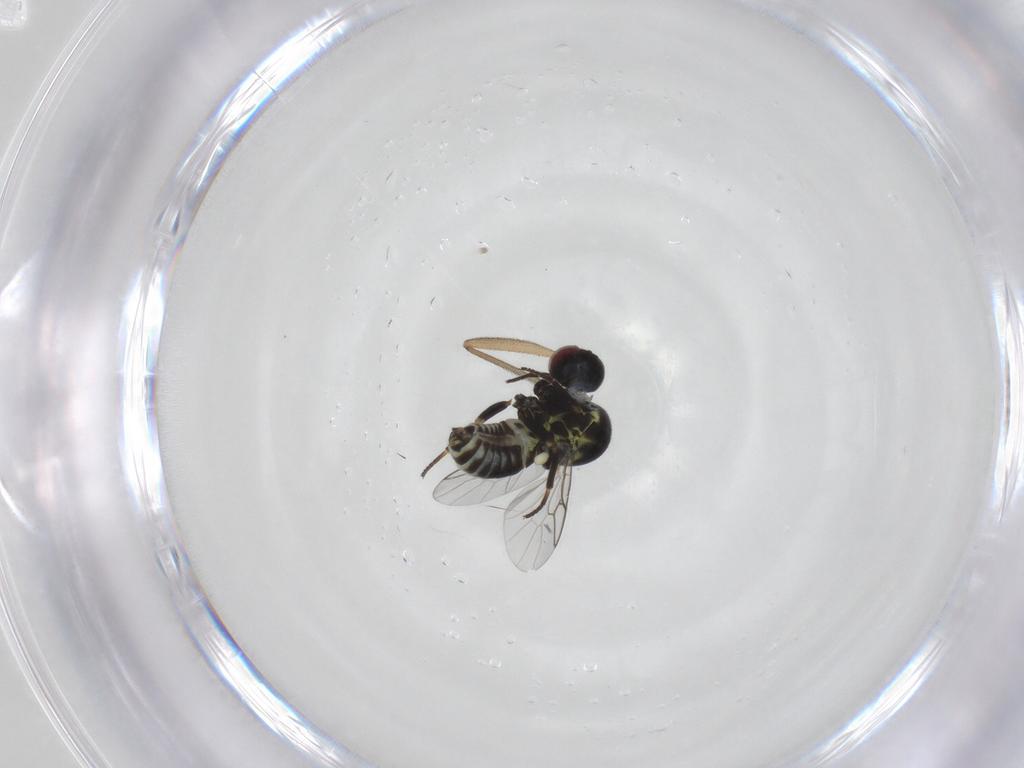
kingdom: Animalia
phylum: Arthropoda
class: Insecta
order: Diptera
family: Mythicomyiidae
